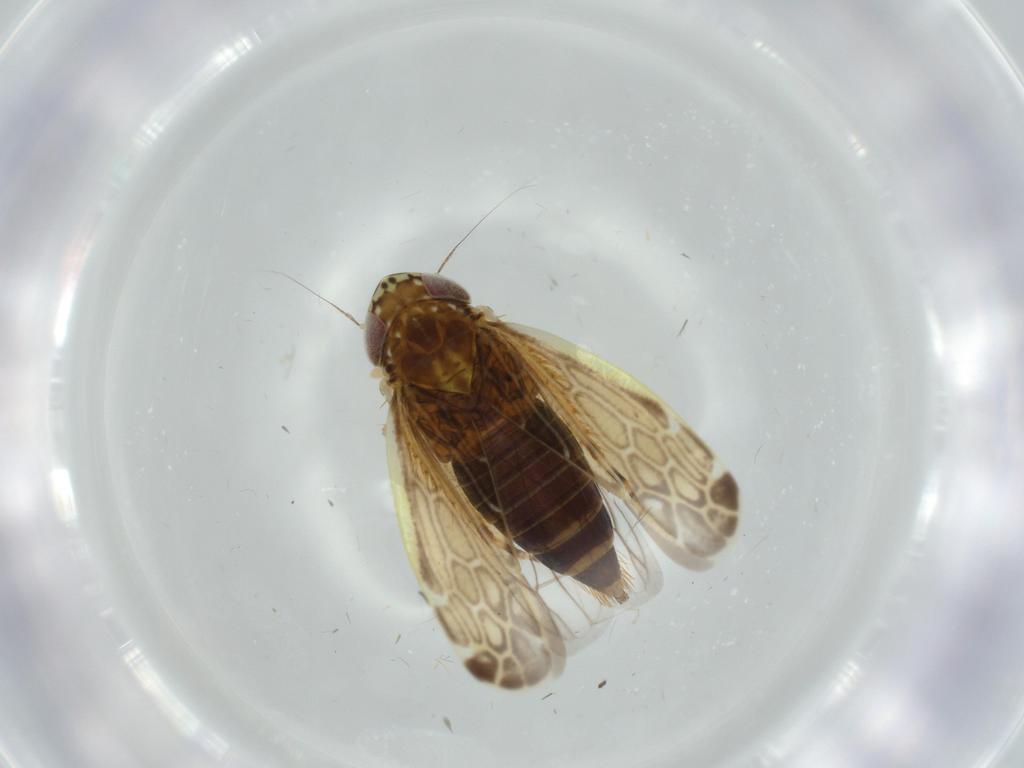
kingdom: Animalia
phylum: Arthropoda
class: Insecta
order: Hemiptera
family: Cicadellidae
